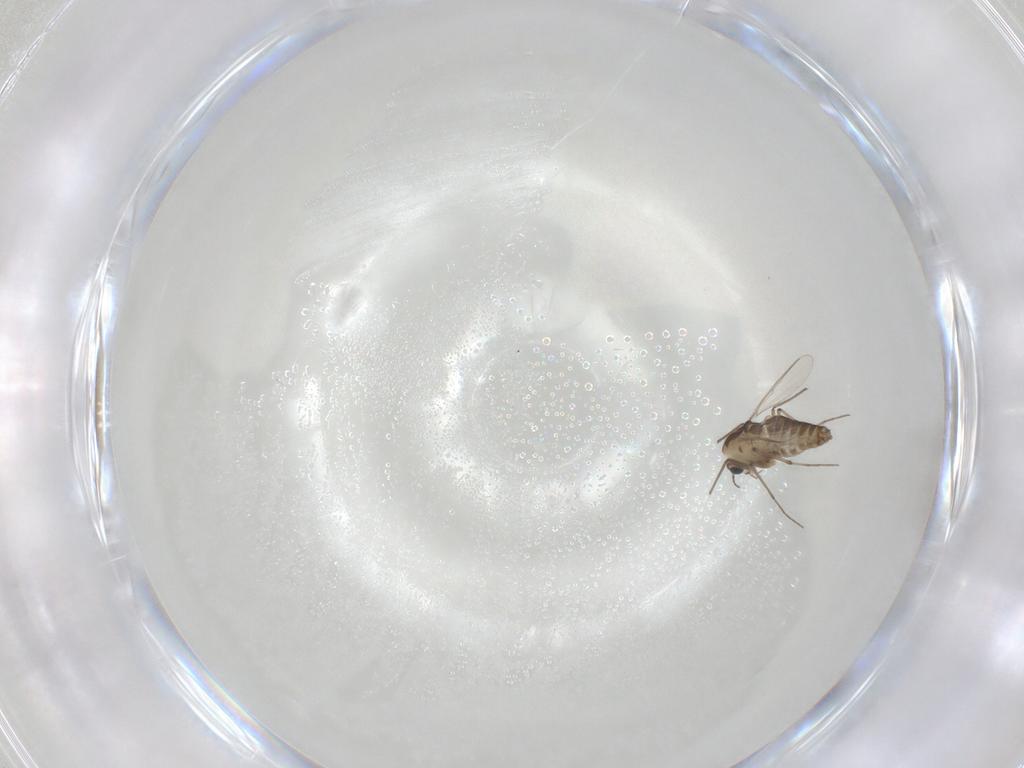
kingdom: Animalia
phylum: Arthropoda
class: Insecta
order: Diptera
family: Chironomidae
